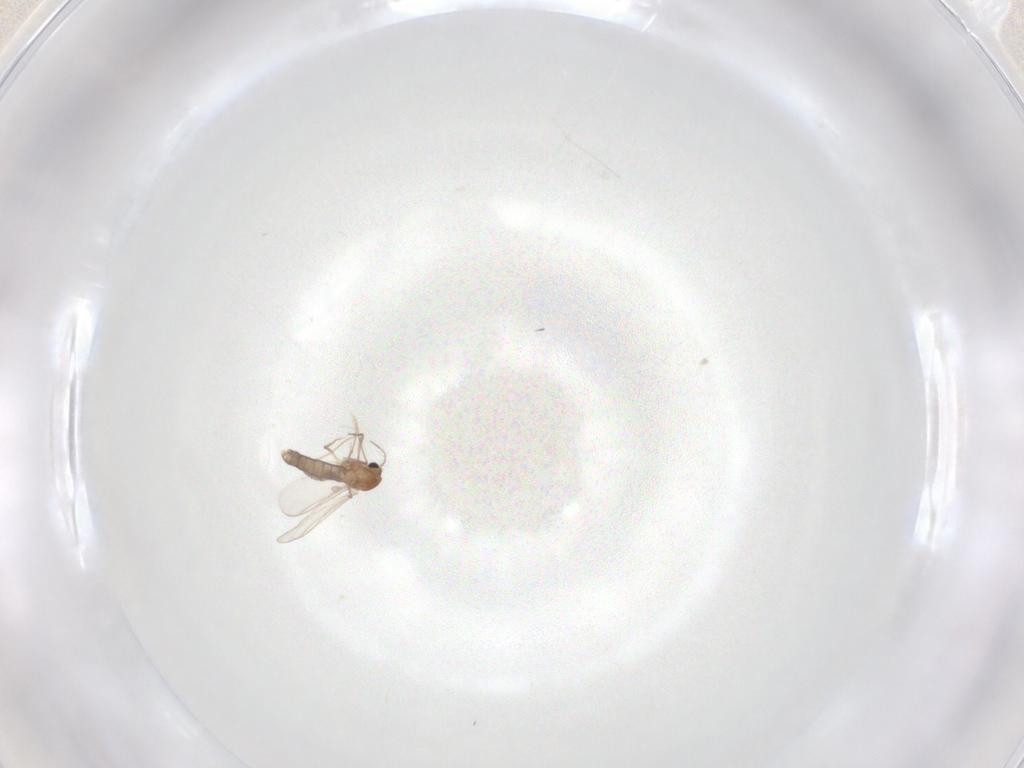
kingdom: Animalia
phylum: Arthropoda
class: Insecta
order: Diptera
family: Chironomidae
